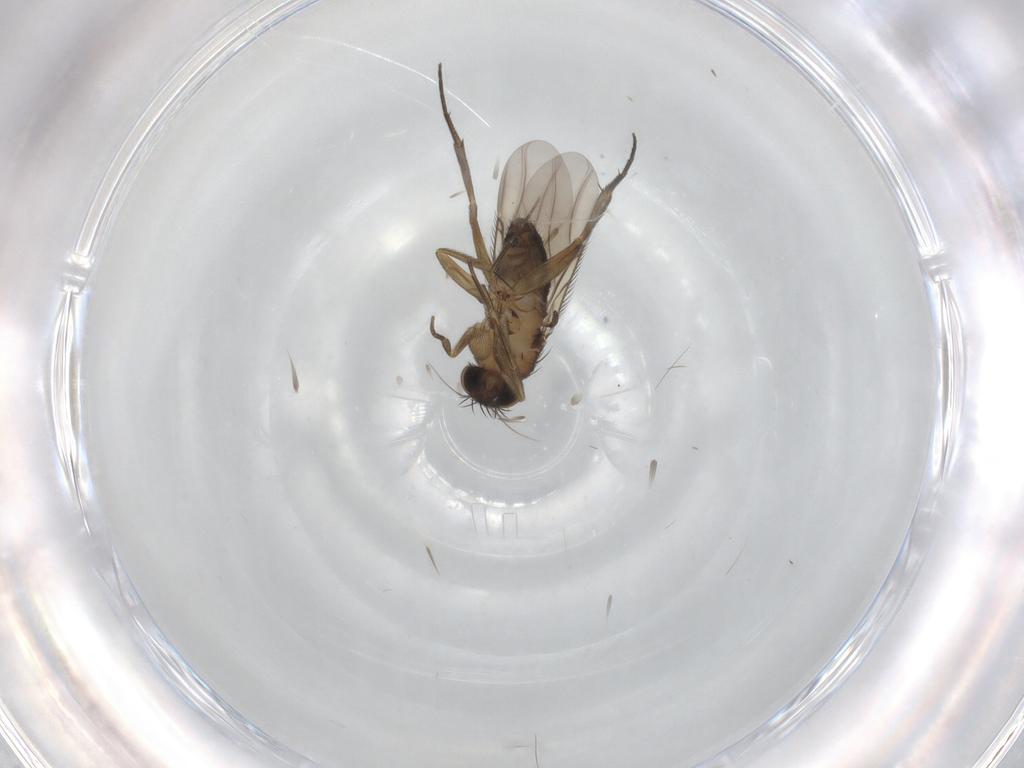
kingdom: Animalia
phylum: Arthropoda
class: Insecta
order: Diptera
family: Phoridae
